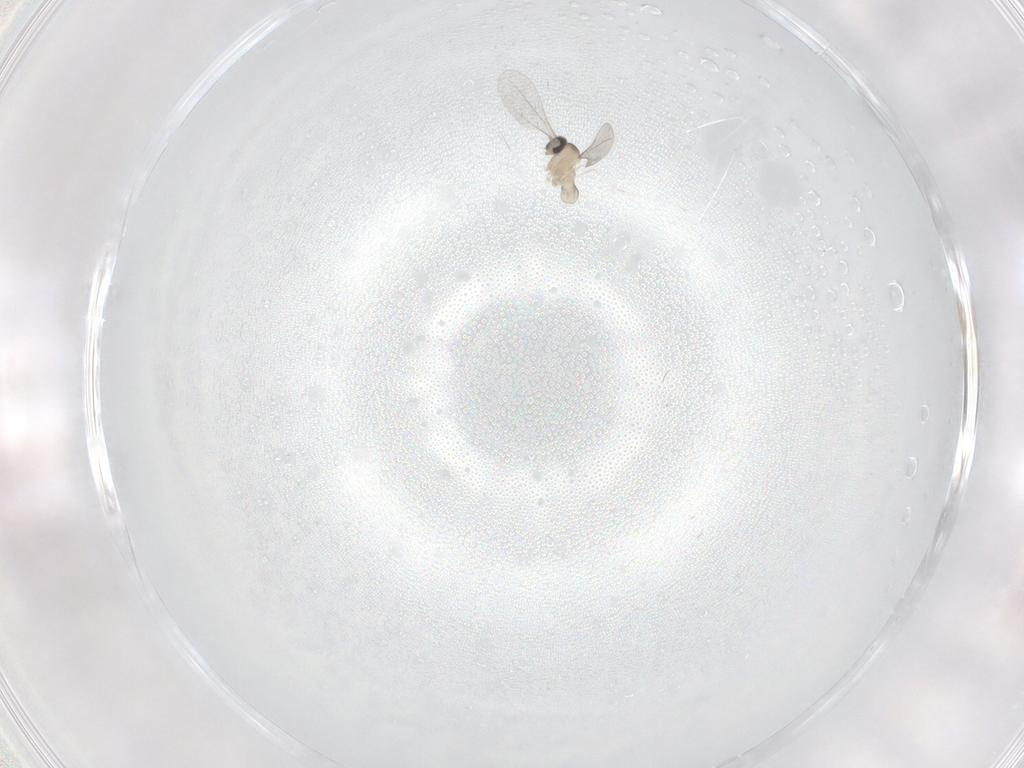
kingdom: Animalia
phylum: Arthropoda
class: Insecta
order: Diptera
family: Cecidomyiidae
